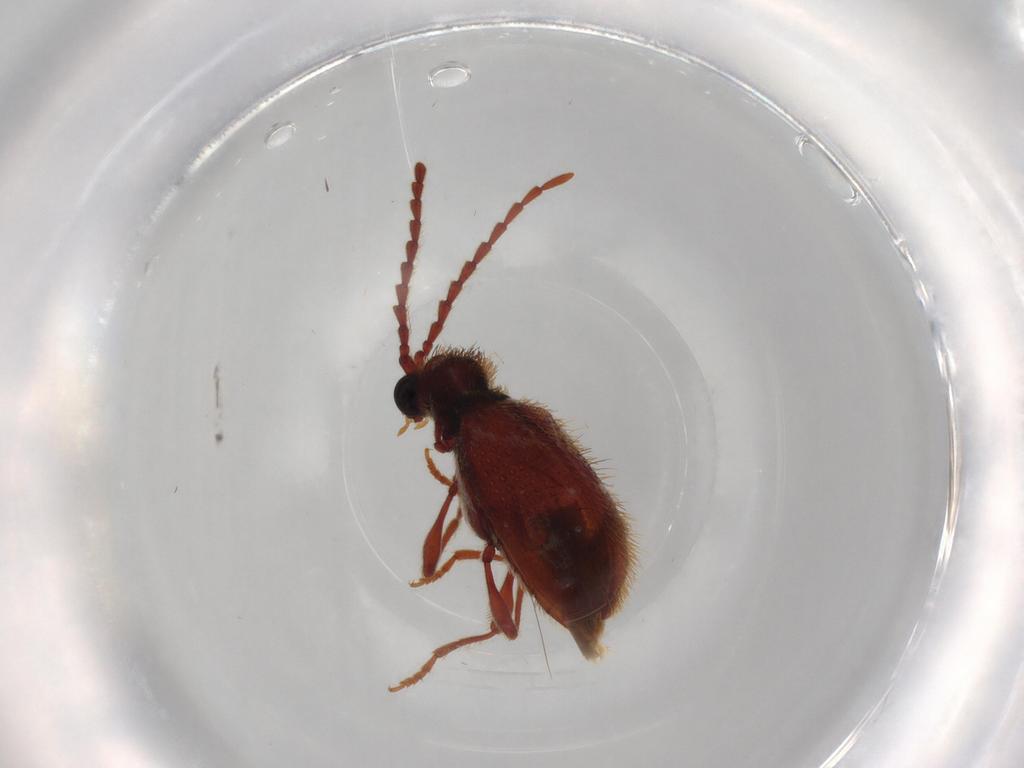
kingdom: Animalia
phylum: Arthropoda
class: Insecta
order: Coleoptera
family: Ptinidae
